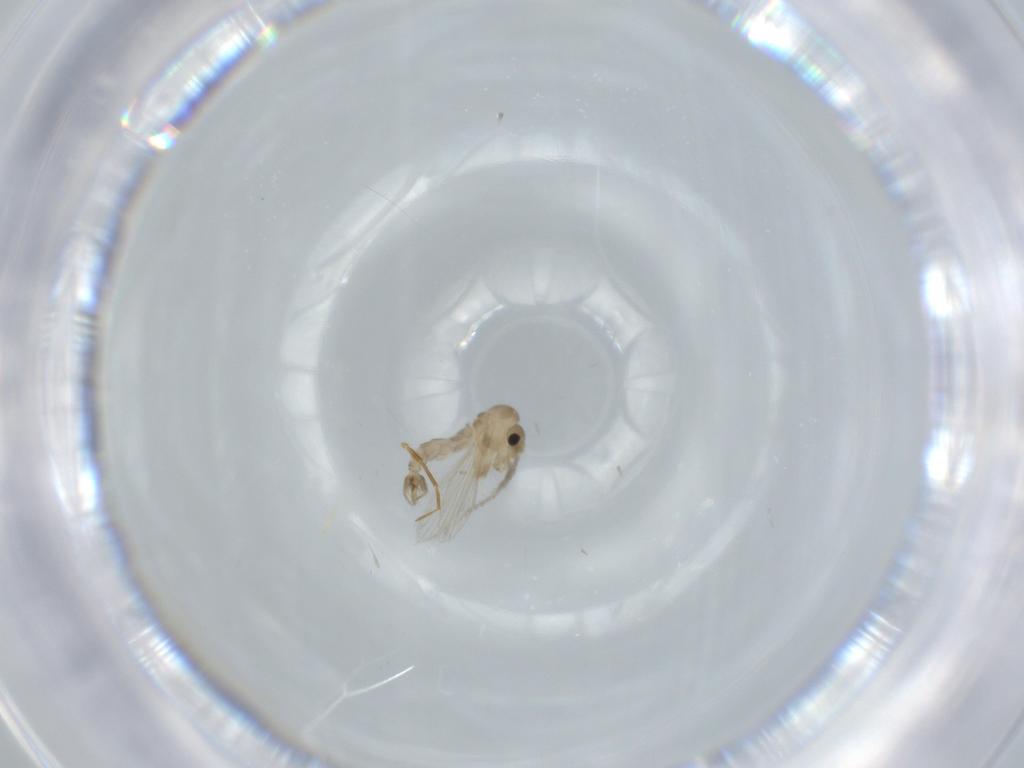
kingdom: Animalia
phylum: Arthropoda
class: Insecta
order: Diptera
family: Psychodidae
